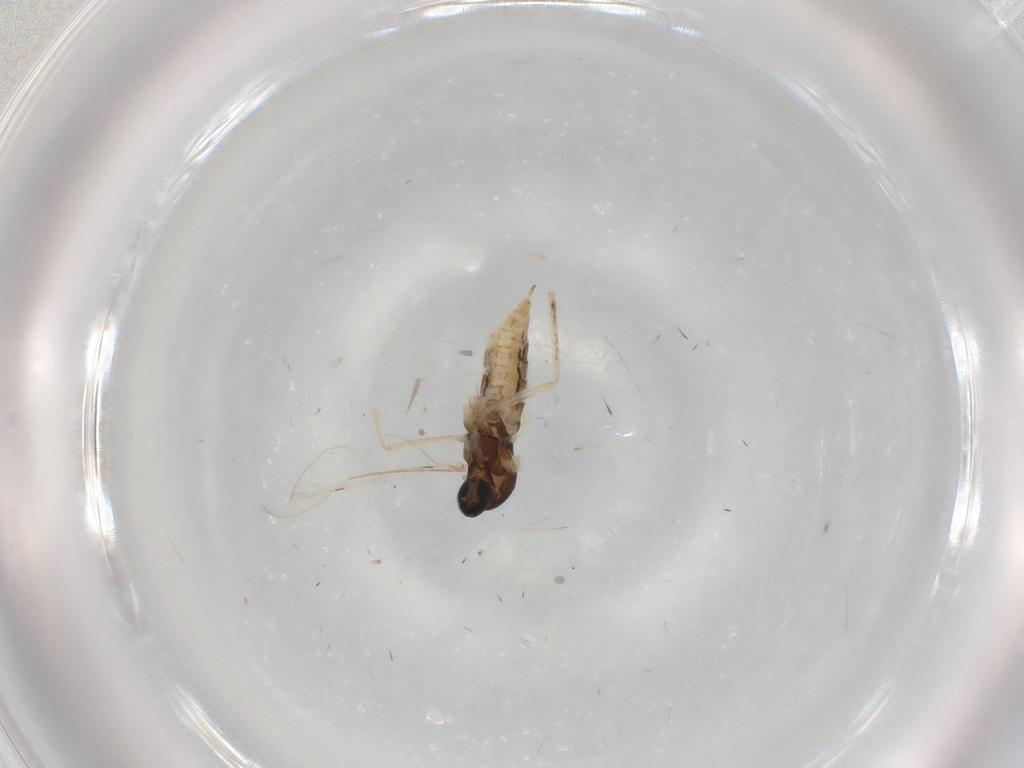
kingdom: Animalia
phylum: Arthropoda
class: Insecta
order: Diptera
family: Cecidomyiidae
